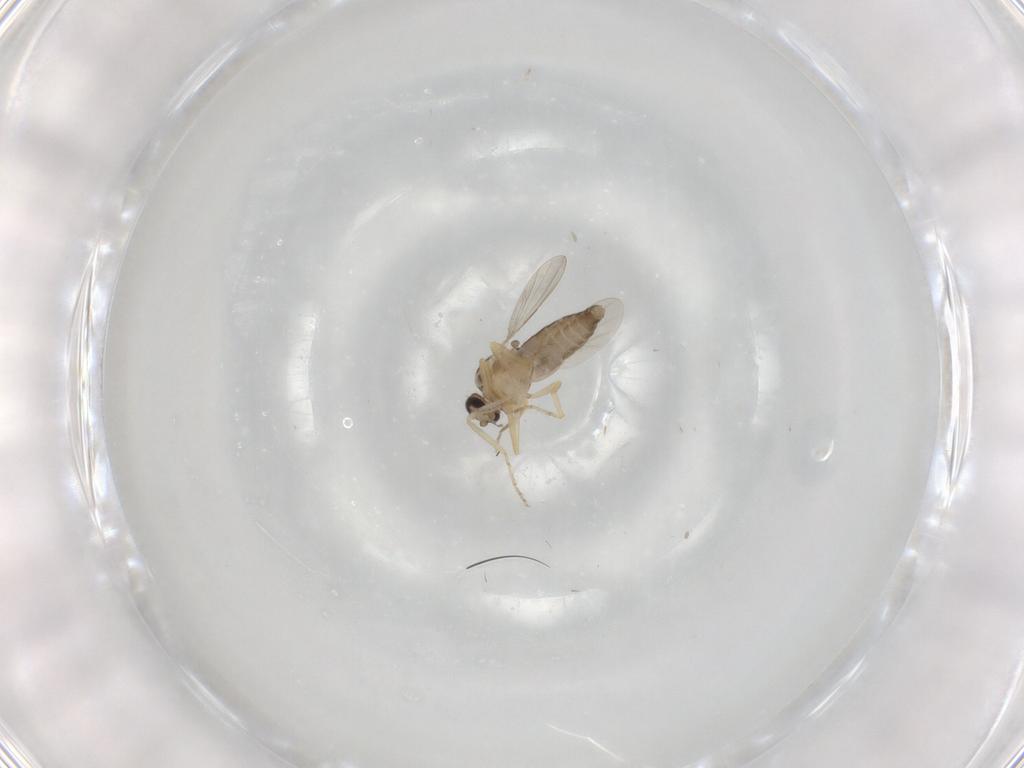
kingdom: Animalia
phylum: Arthropoda
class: Insecta
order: Diptera
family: Ceratopogonidae
